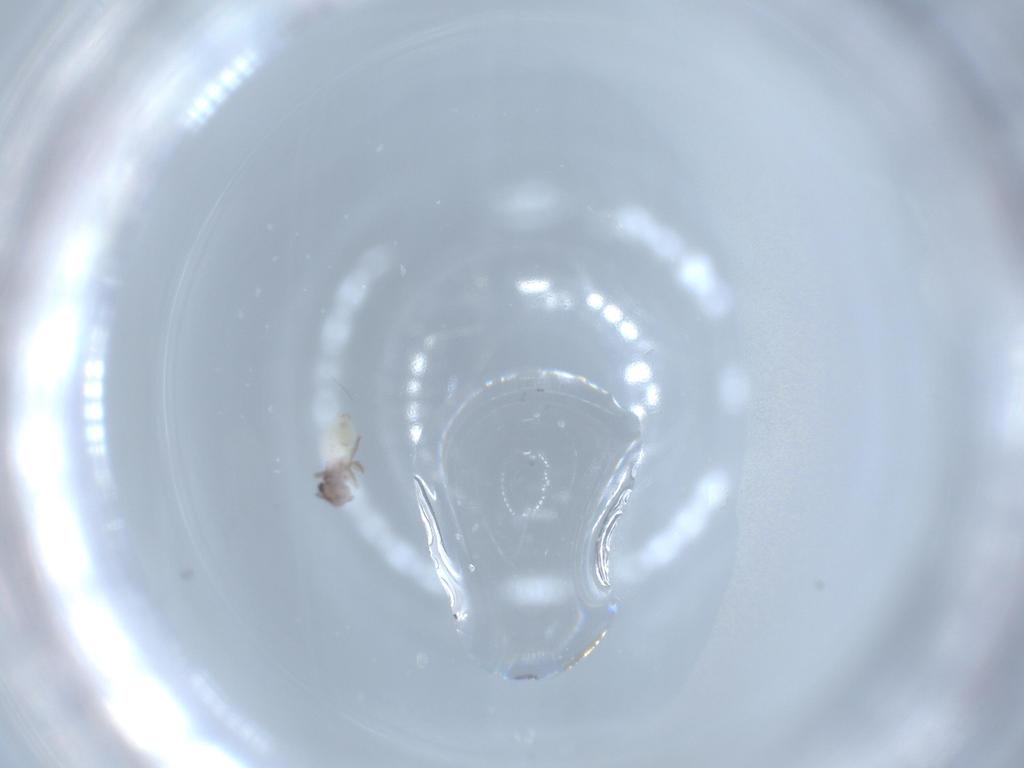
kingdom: Animalia
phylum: Arthropoda
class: Insecta
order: Psocodea
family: Lepidopsocidae
